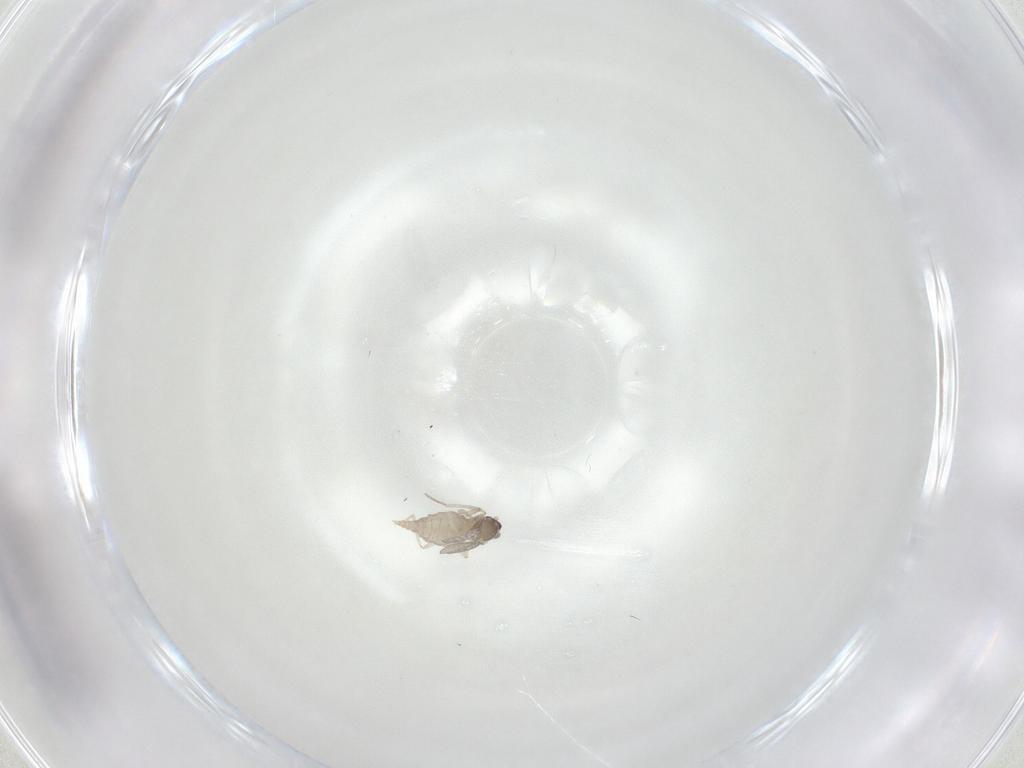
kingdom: Animalia
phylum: Arthropoda
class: Insecta
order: Diptera
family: Cecidomyiidae
